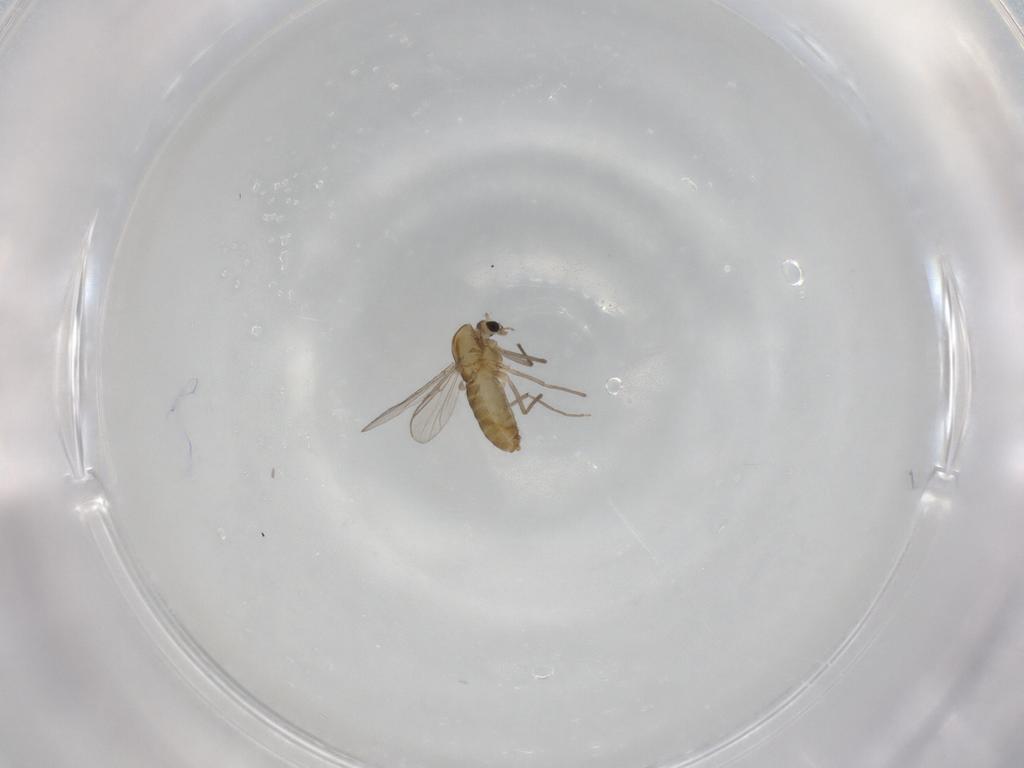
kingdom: Animalia
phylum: Arthropoda
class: Insecta
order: Diptera
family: Chironomidae
